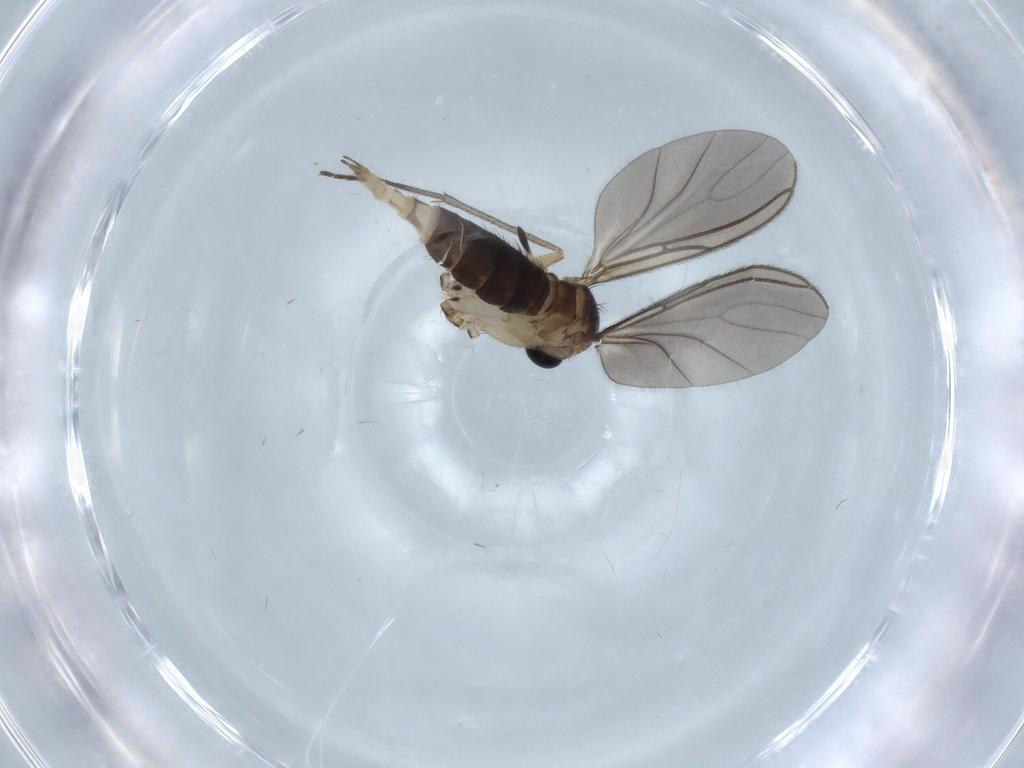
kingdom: Animalia
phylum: Arthropoda
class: Insecta
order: Diptera
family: Sciaridae
